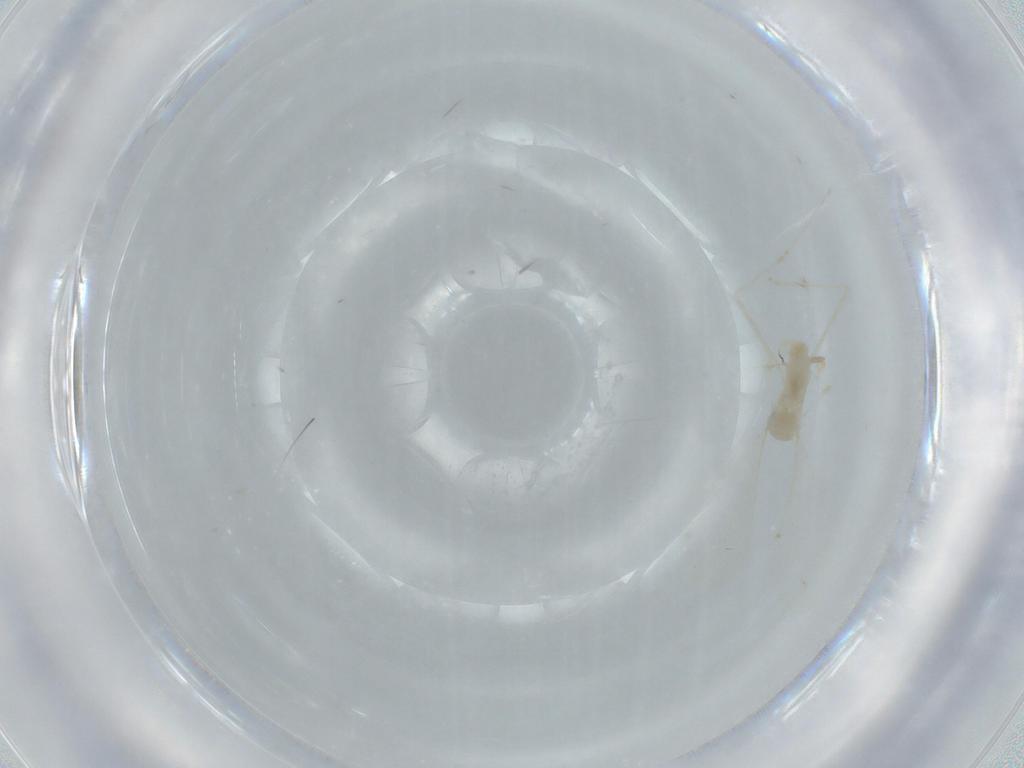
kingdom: Animalia
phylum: Arthropoda
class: Insecta
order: Diptera
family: Cecidomyiidae
